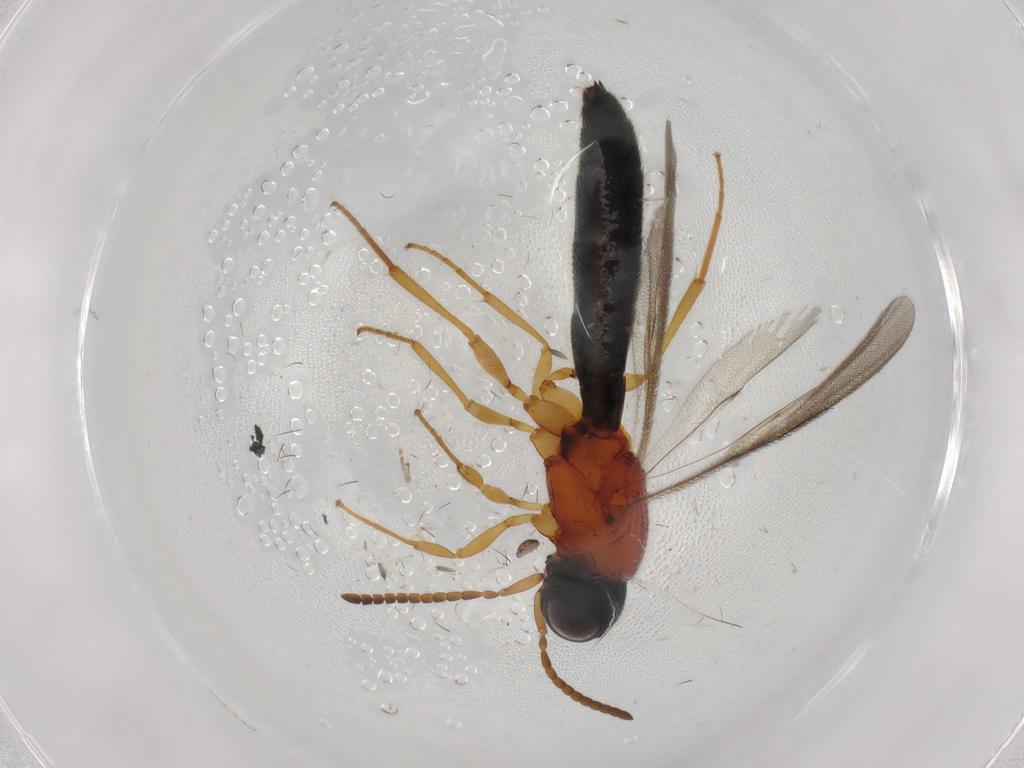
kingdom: Animalia
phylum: Arthropoda
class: Insecta
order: Hymenoptera
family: Scelionidae
